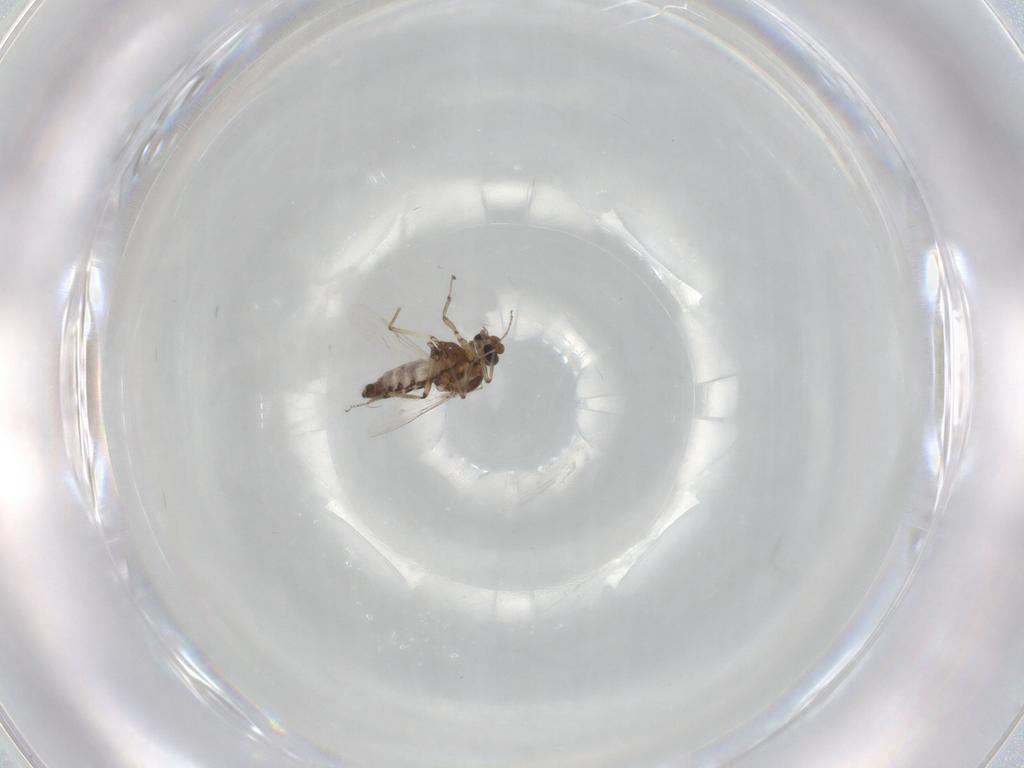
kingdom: Animalia
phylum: Arthropoda
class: Insecta
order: Diptera
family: Ceratopogonidae
